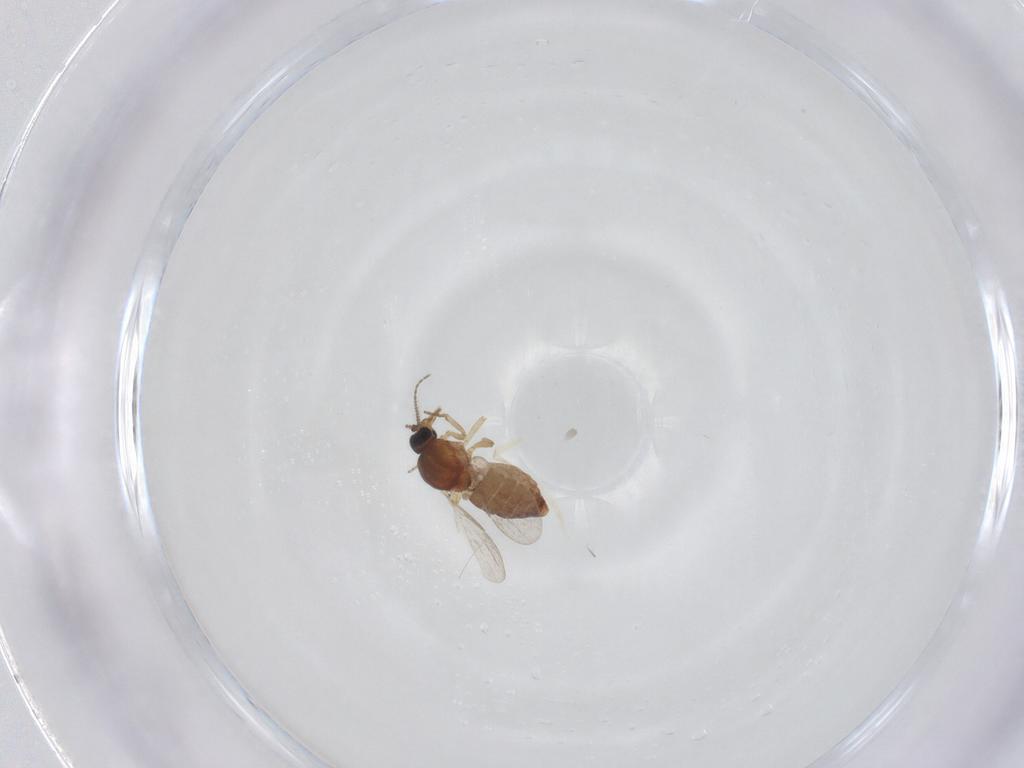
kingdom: Animalia
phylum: Arthropoda
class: Insecta
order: Diptera
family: Ceratopogonidae
